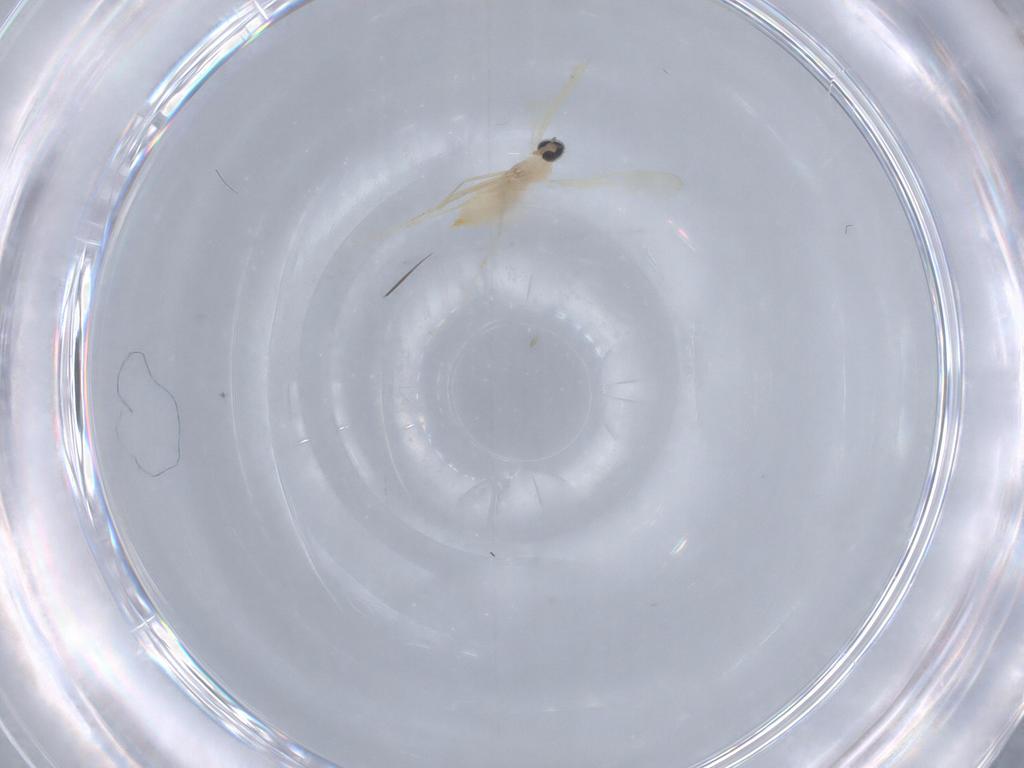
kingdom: Animalia
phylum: Arthropoda
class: Insecta
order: Diptera
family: Cecidomyiidae
